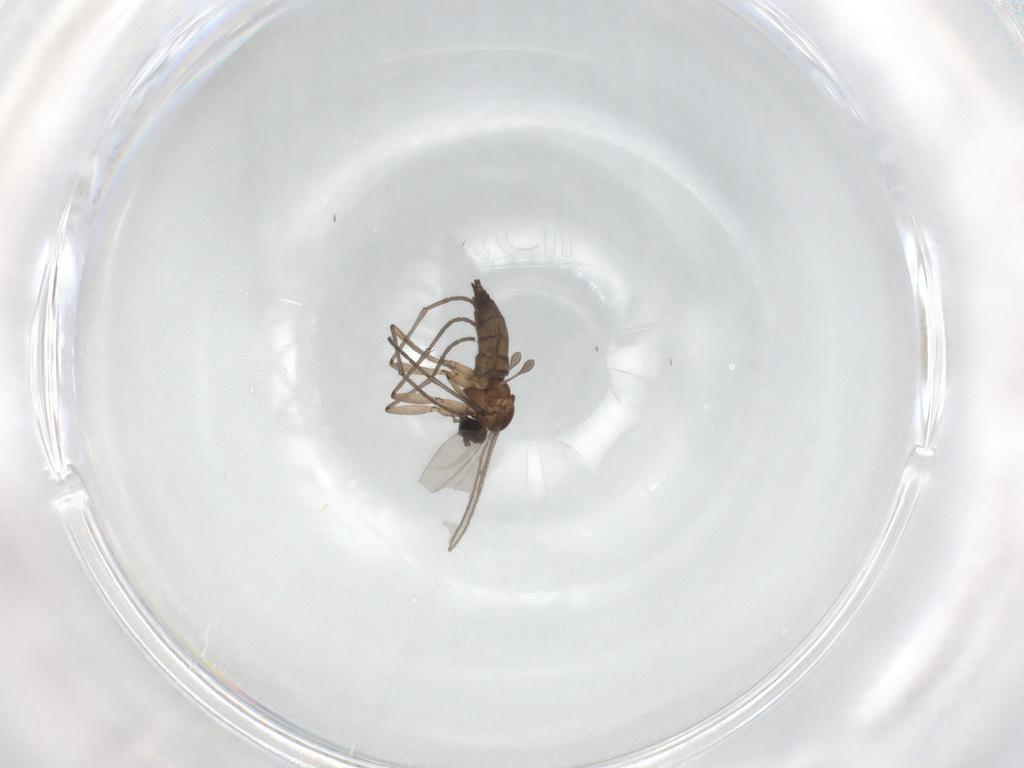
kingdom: Animalia
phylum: Arthropoda
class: Insecta
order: Diptera
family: Sciaridae
